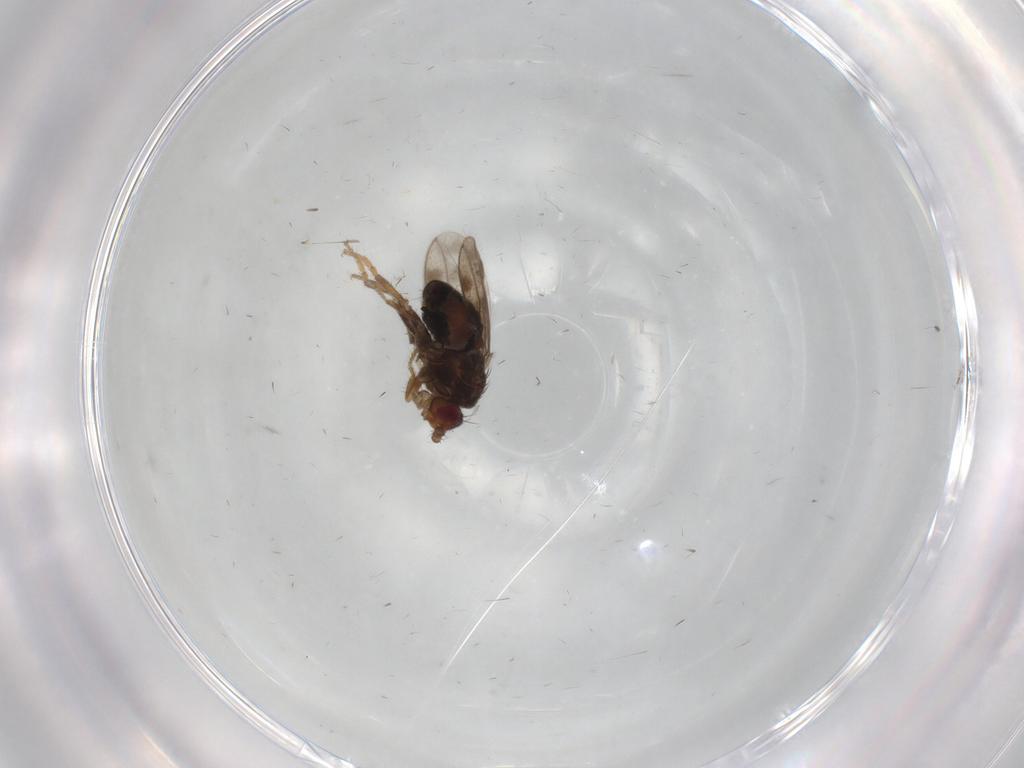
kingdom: Animalia
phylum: Arthropoda
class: Insecta
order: Diptera
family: Sphaeroceridae
